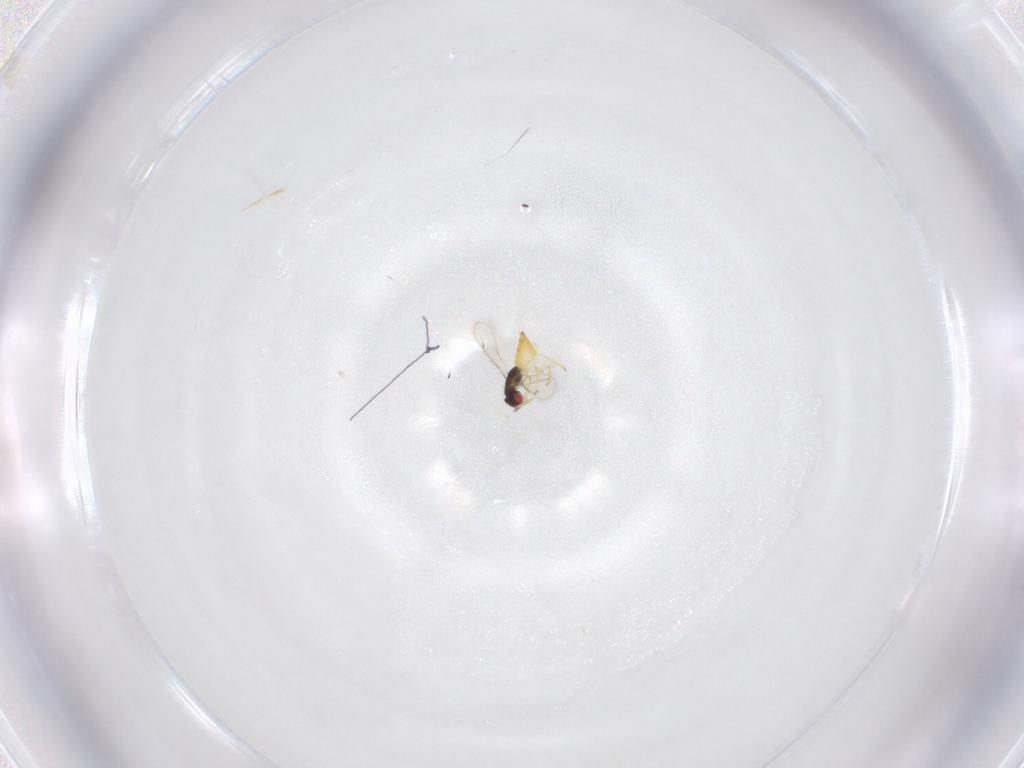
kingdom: Animalia
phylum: Arthropoda
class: Insecta
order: Hymenoptera
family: Eulophidae
